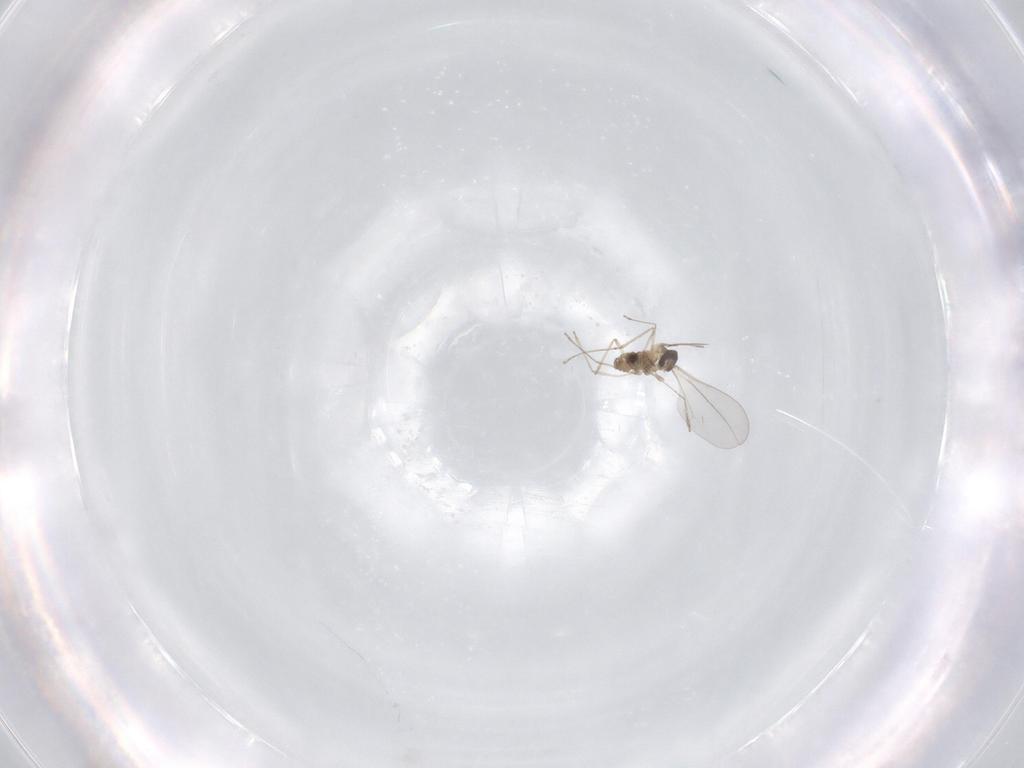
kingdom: Animalia
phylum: Arthropoda
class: Insecta
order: Diptera
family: Cecidomyiidae
